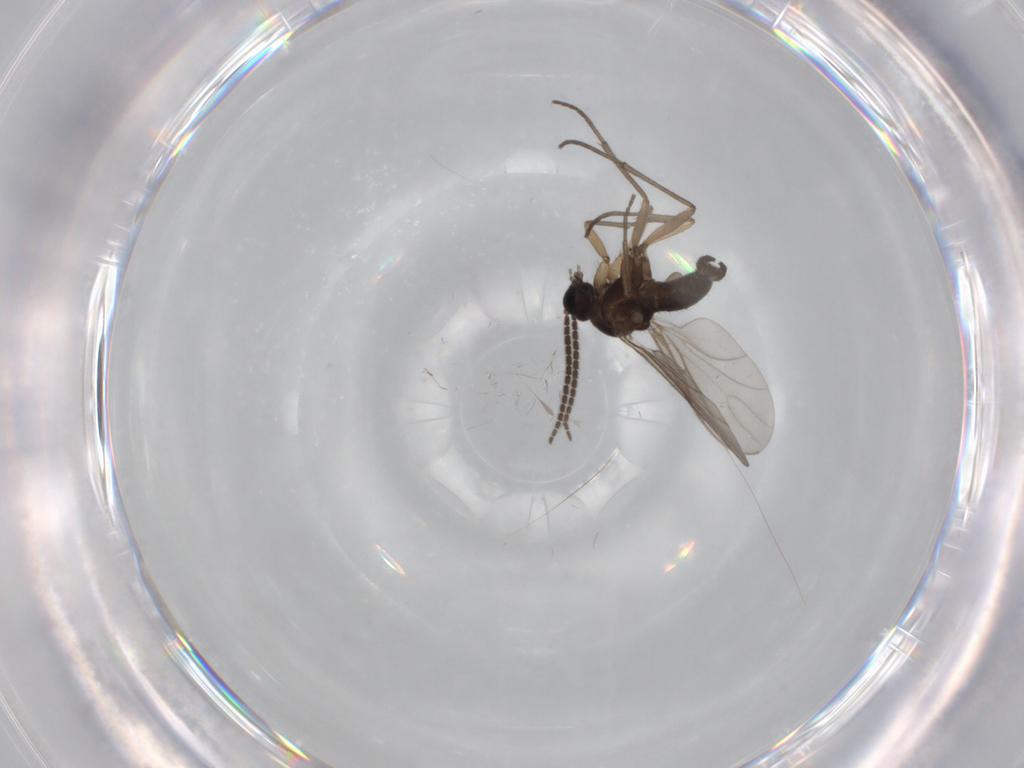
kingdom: Animalia
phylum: Arthropoda
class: Insecta
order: Diptera
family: Sciaridae
